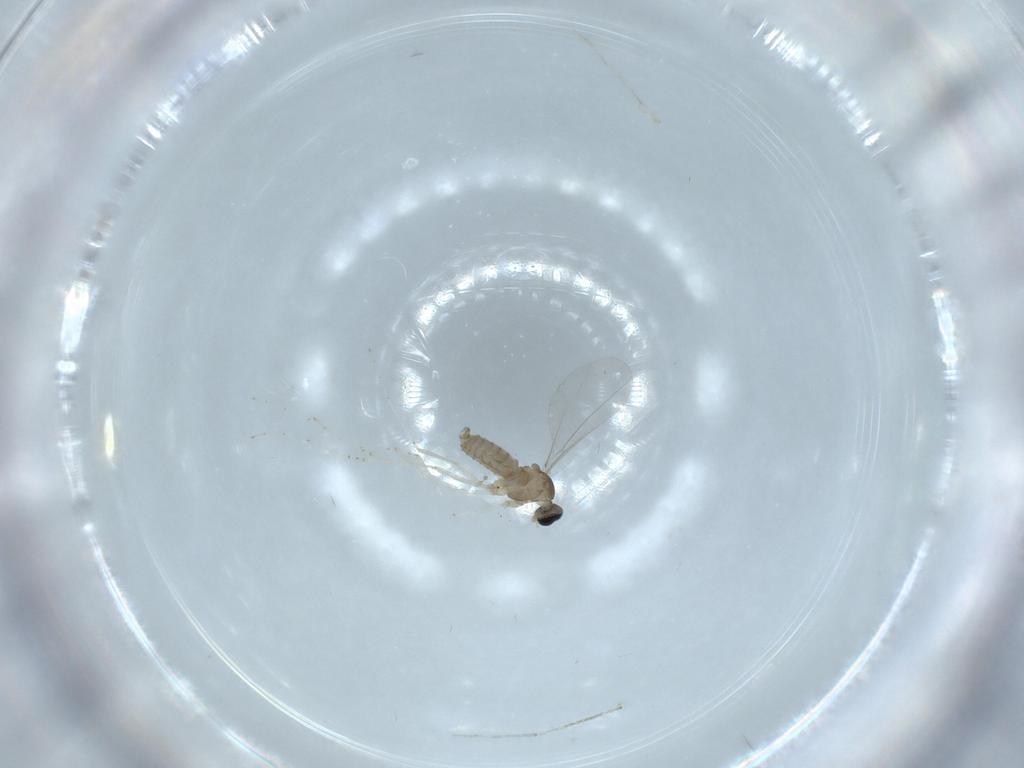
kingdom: Animalia
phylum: Arthropoda
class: Insecta
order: Diptera
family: Cecidomyiidae
